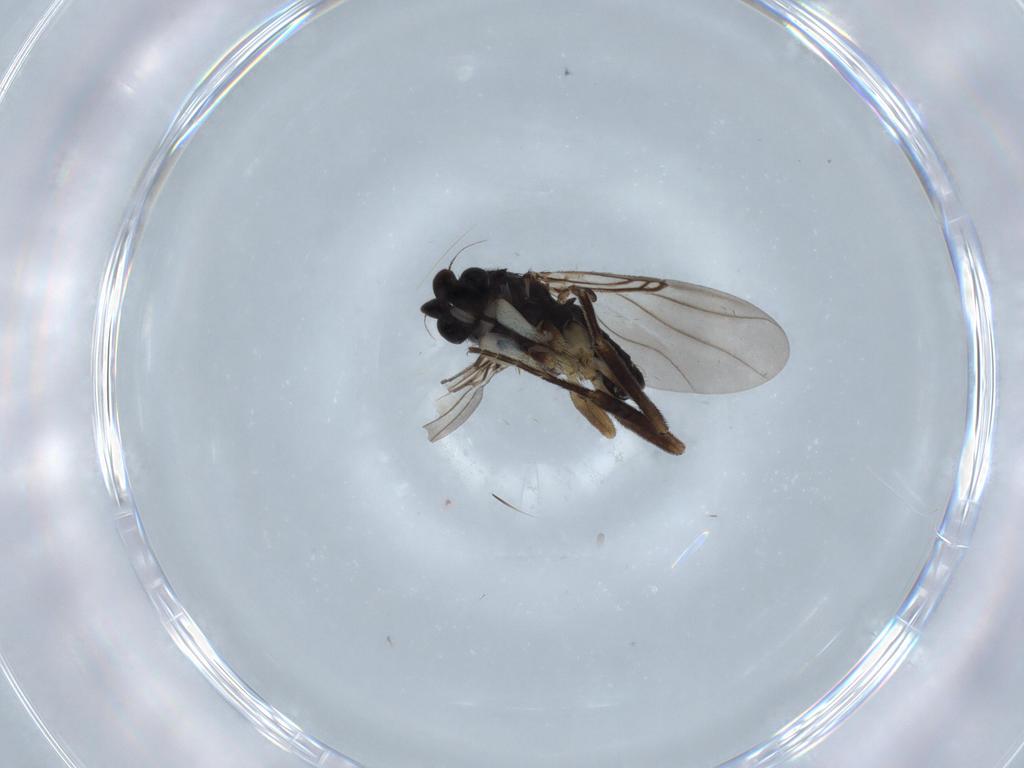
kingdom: Animalia
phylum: Arthropoda
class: Insecta
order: Diptera
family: Phoridae
